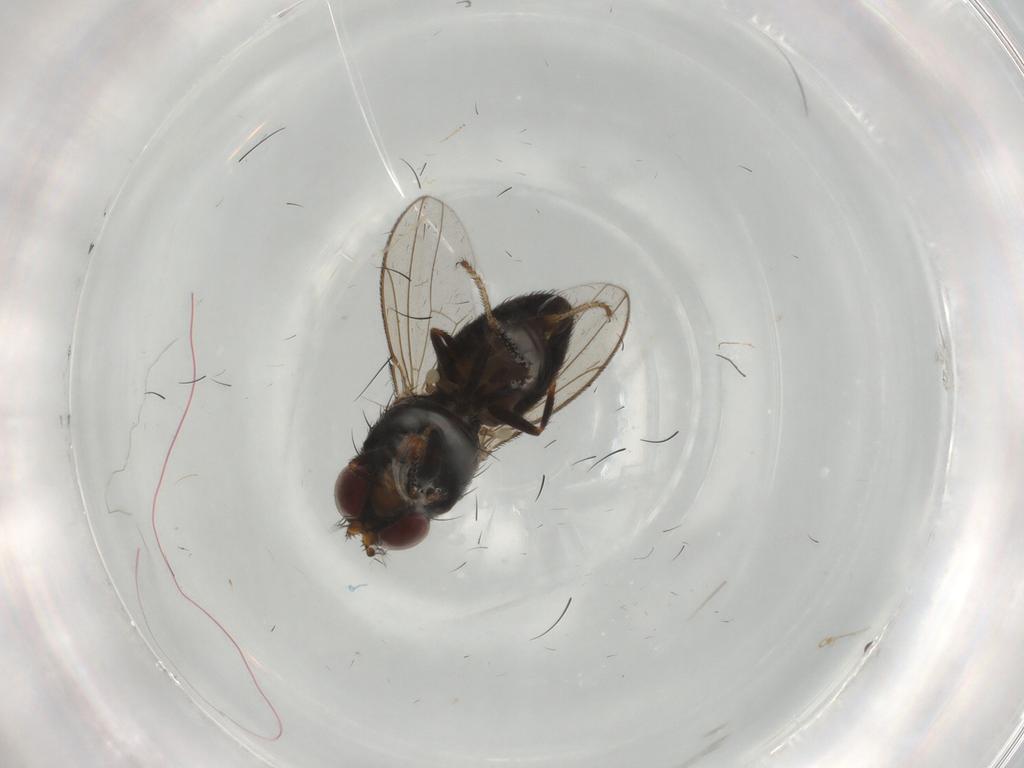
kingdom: Animalia
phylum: Arthropoda
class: Insecta
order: Diptera
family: Ephydridae
